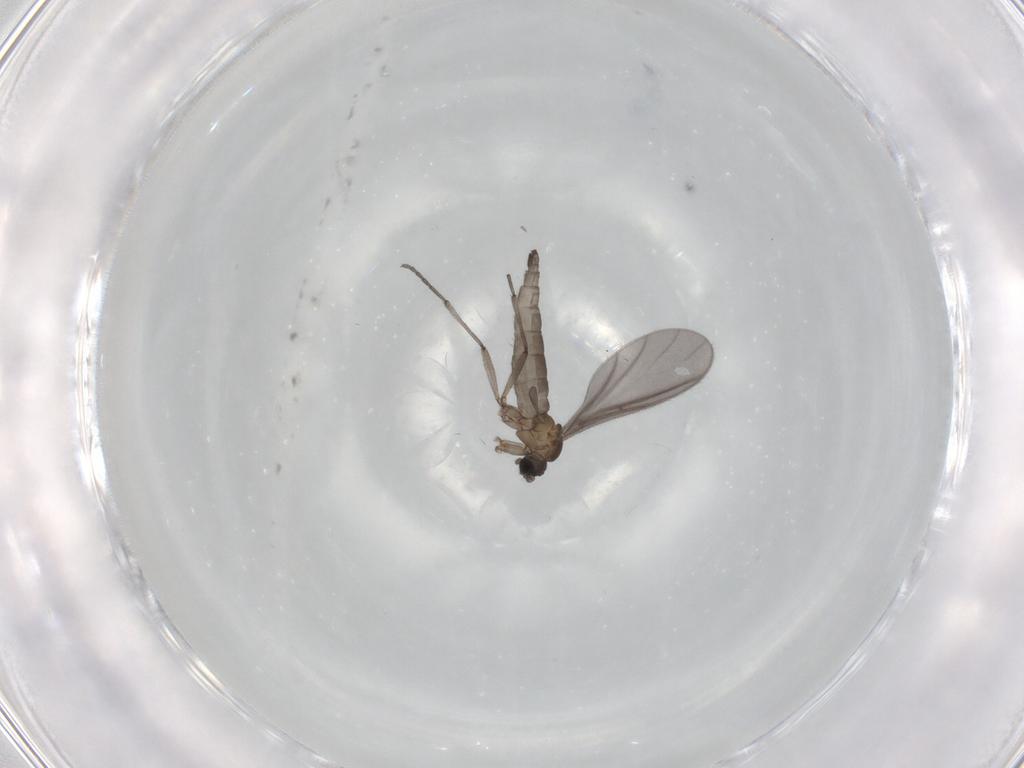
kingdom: Animalia
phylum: Arthropoda
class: Insecta
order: Diptera
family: Sciaridae
